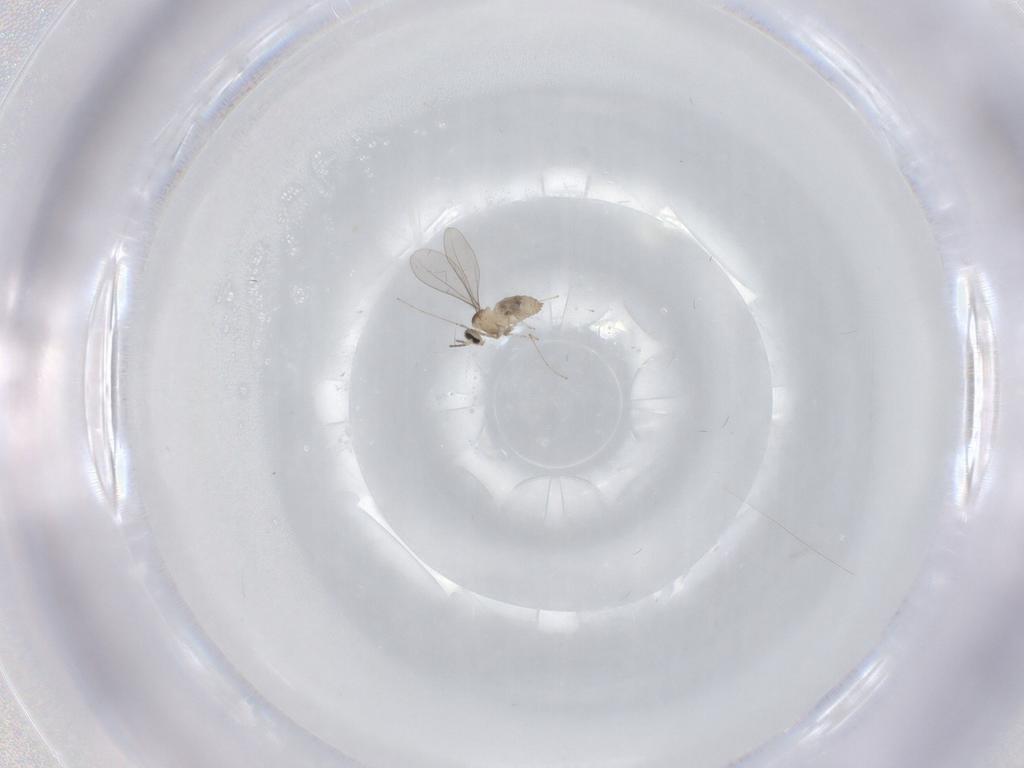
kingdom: Animalia
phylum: Arthropoda
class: Insecta
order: Diptera
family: Cecidomyiidae
